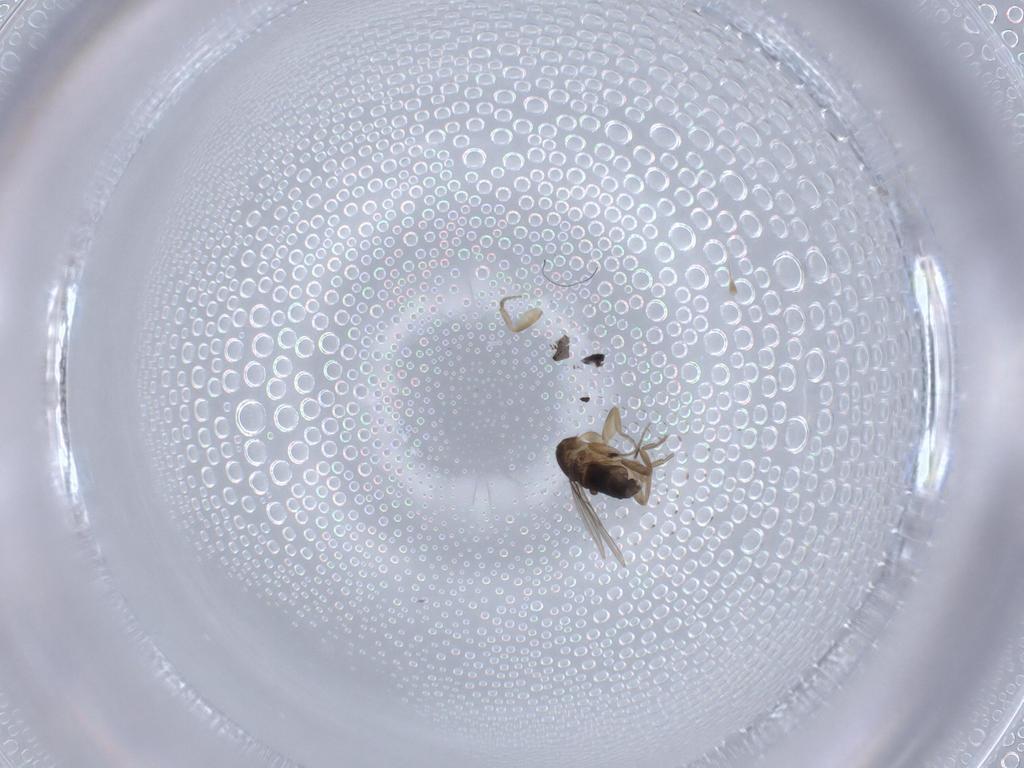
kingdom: Animalia
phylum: Arthropoda
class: Insecta
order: Diptera
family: Phoridae
